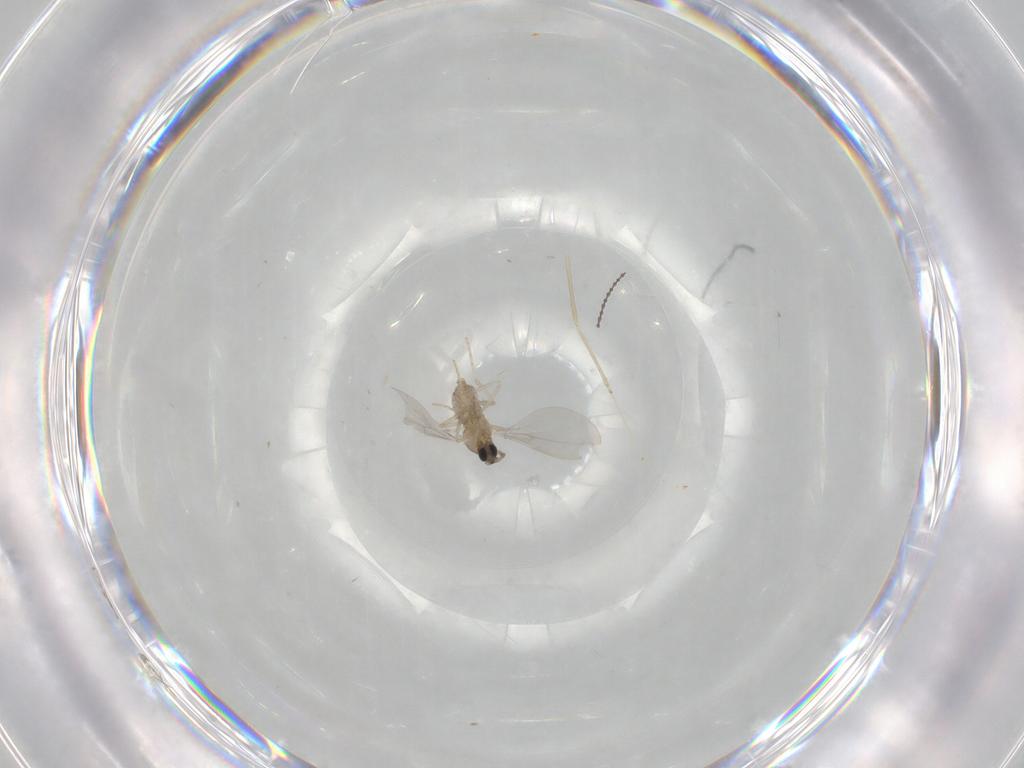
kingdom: Animalia
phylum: Arthropoda
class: Insecta
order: Diptera
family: Cecidomyiidae
